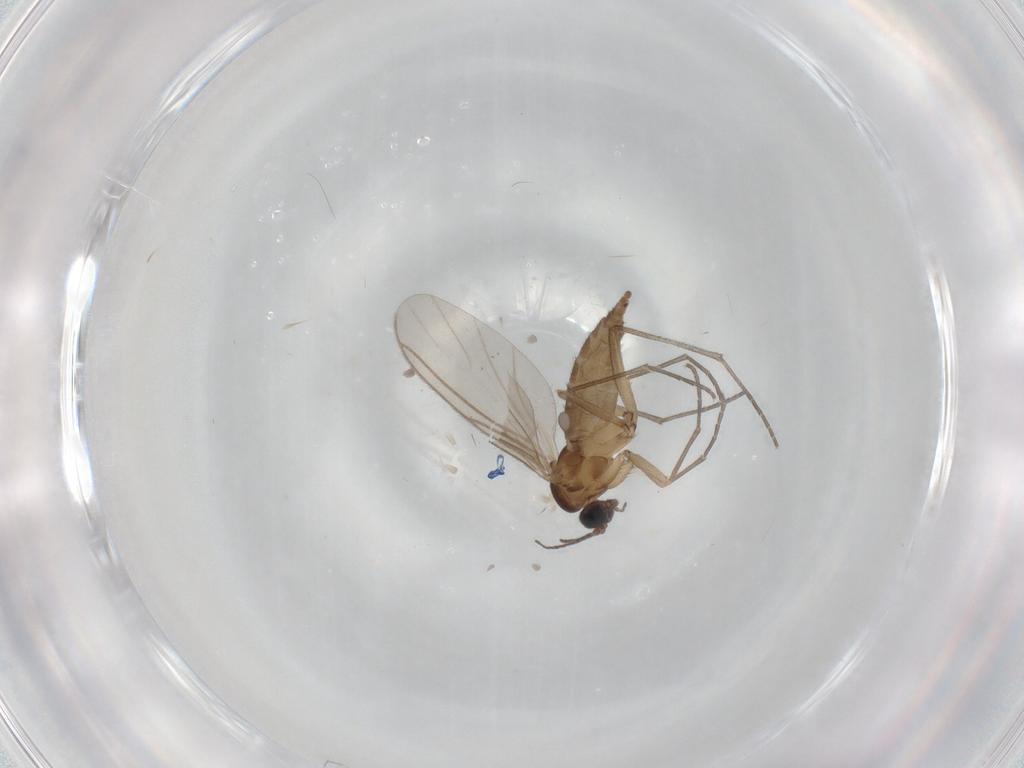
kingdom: Animalia
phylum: Arthropoda
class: Insecta
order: Diptera
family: Sciaridae
